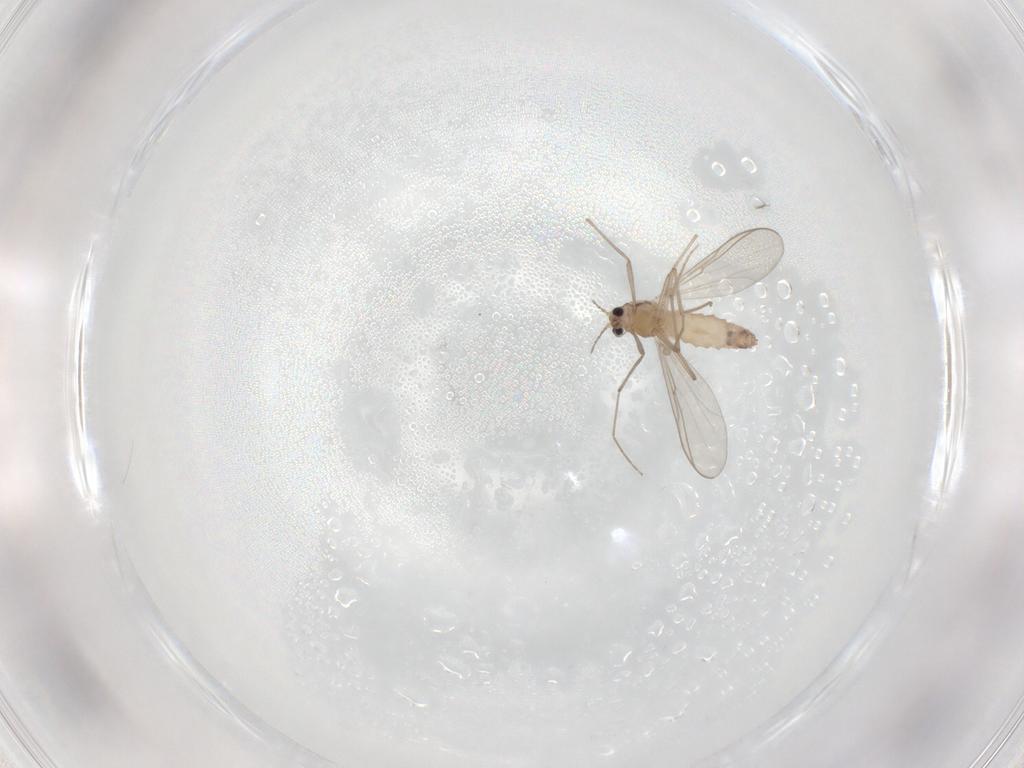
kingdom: Animalia
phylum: Arthropoda
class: Insecta
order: Diptera
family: Chironomidae
